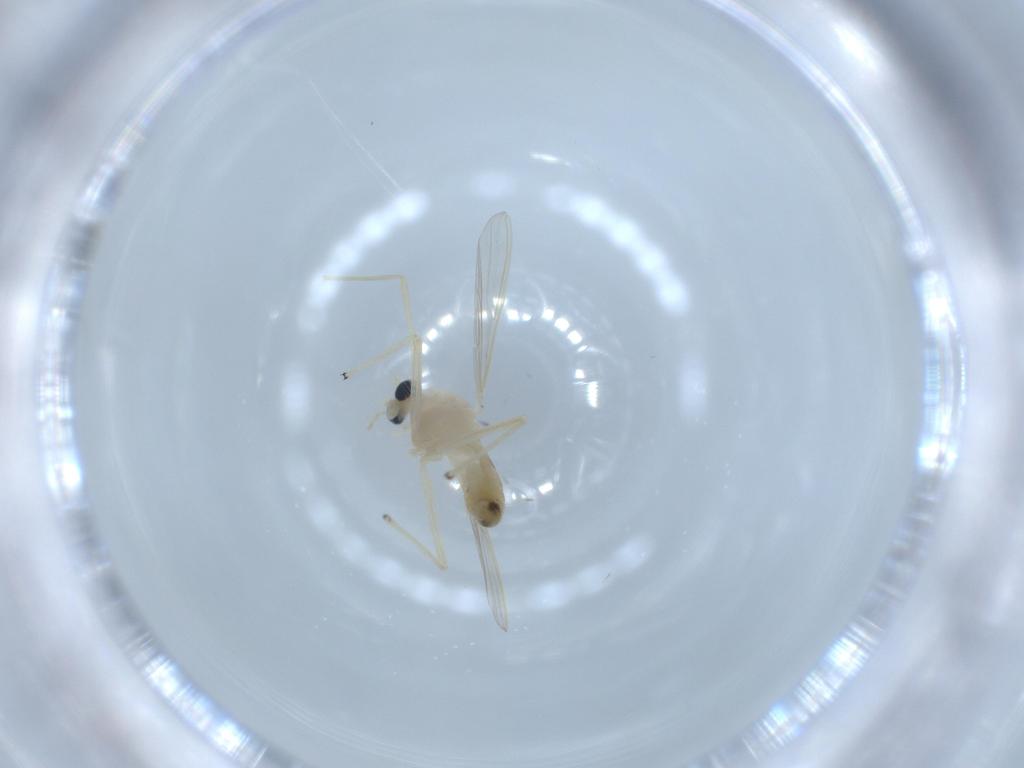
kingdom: Animalia
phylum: Arthropoda
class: Insecta
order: Diptera
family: Chironomidae
